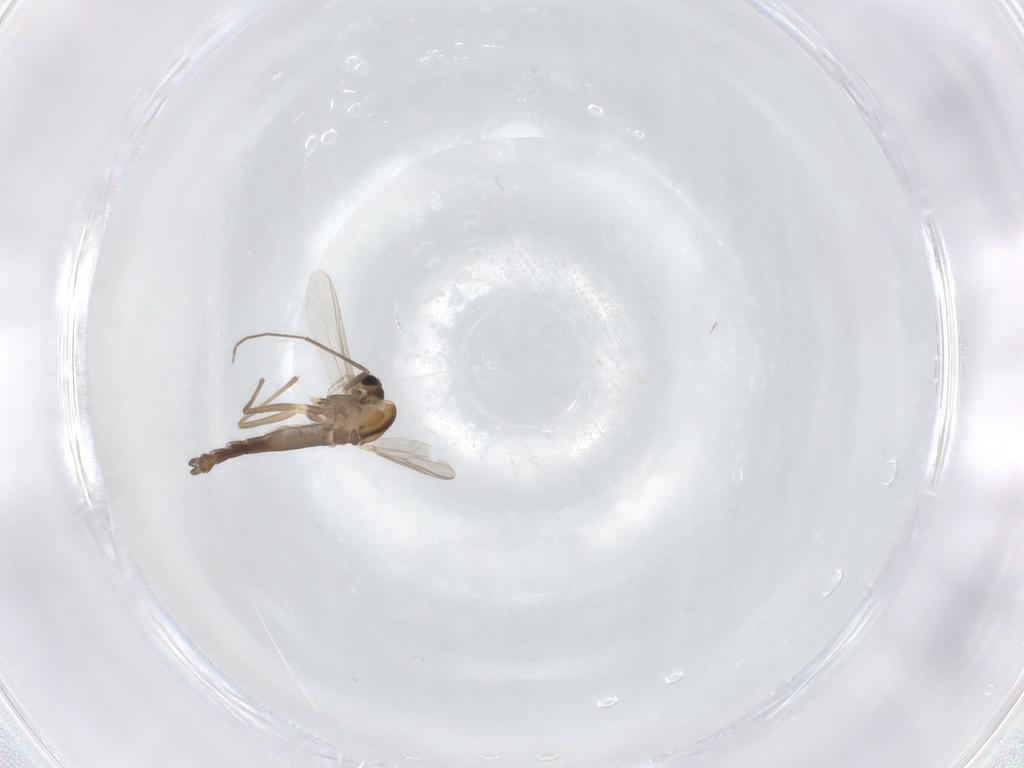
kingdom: Animalia
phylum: Arthropoda
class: Insecta
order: Diptera
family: Chironomidae
